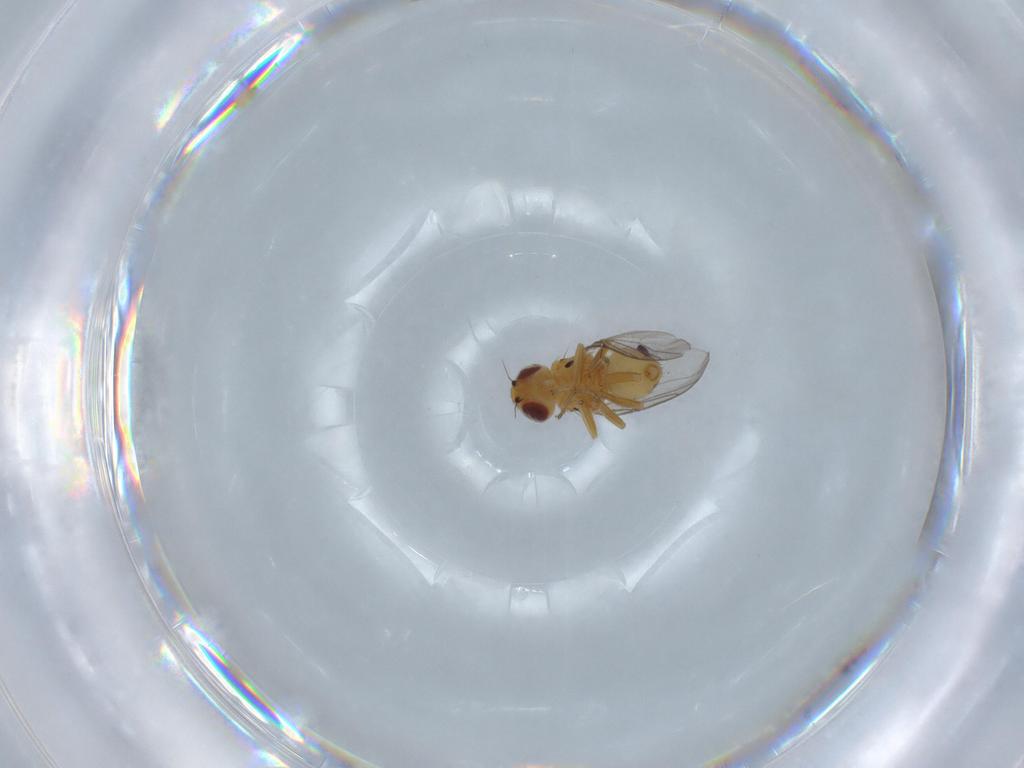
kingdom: Animalia
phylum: Arthropoda
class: Insecta
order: Diptera
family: Chloropidae
